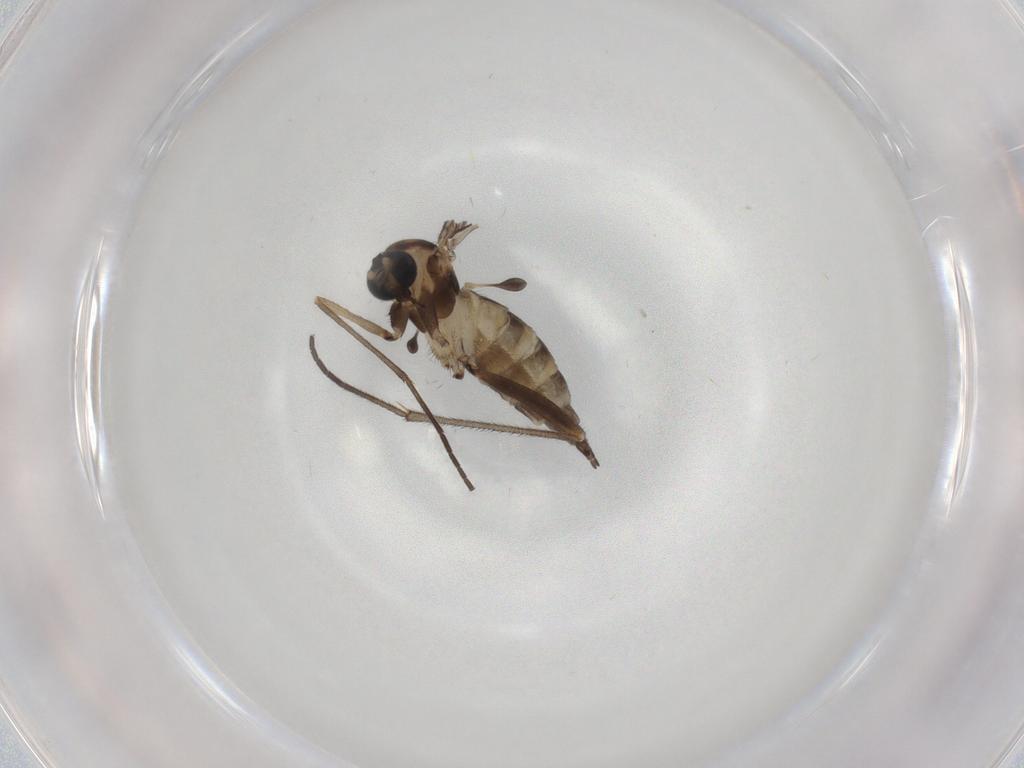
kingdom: Animalia
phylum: Arthropoda
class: Insecta
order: Diptera
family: Sciaridae
